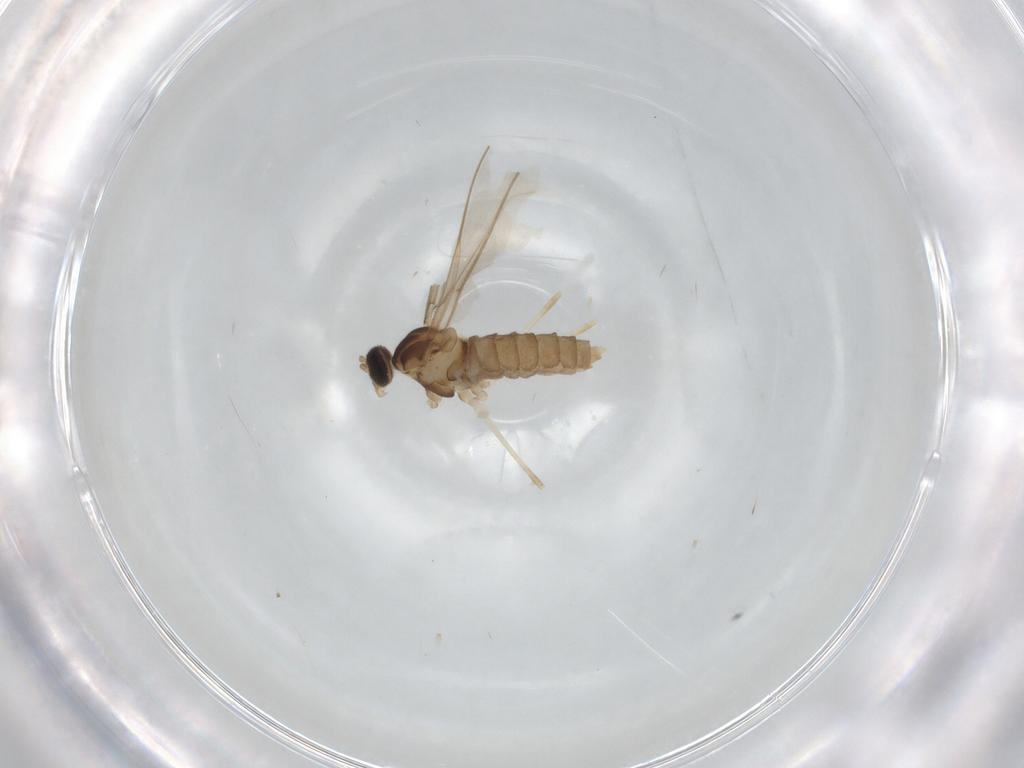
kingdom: Animalia
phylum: Arthropoda
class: Insecta
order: Diptera
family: Cecidomyiidae
